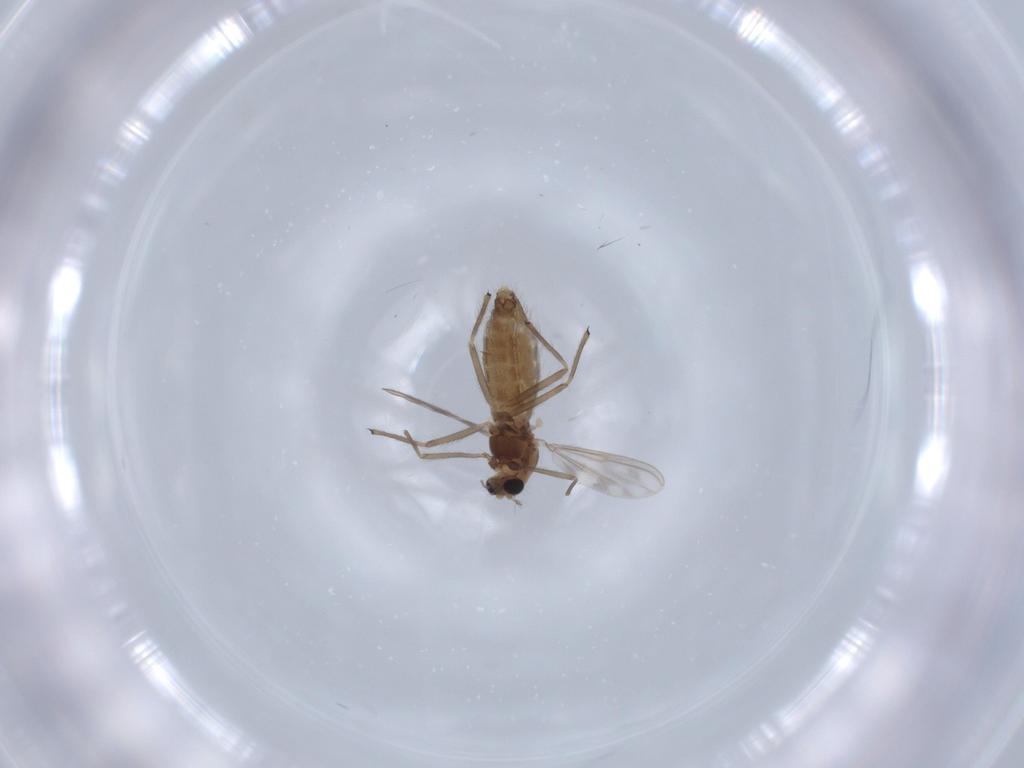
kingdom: Animalia
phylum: Arthropoda
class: Insecta
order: Diptera
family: Chironomidae
